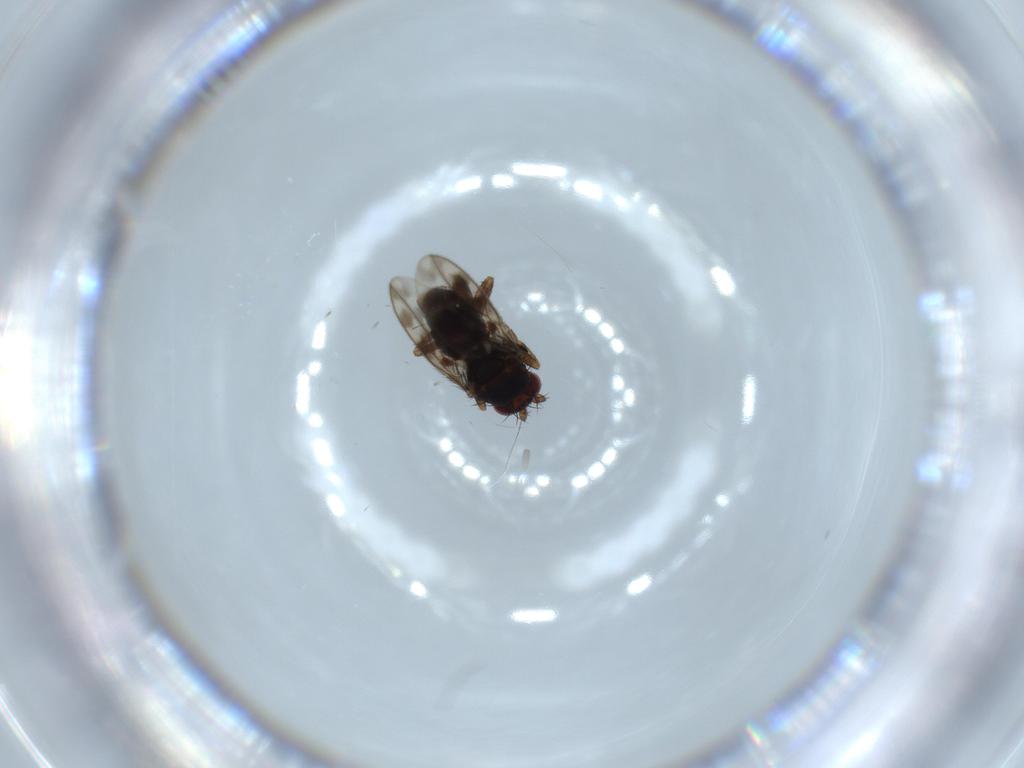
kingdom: Animalia
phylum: Arthropoda
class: Insecta
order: Diptera
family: Sphaeroceridae
